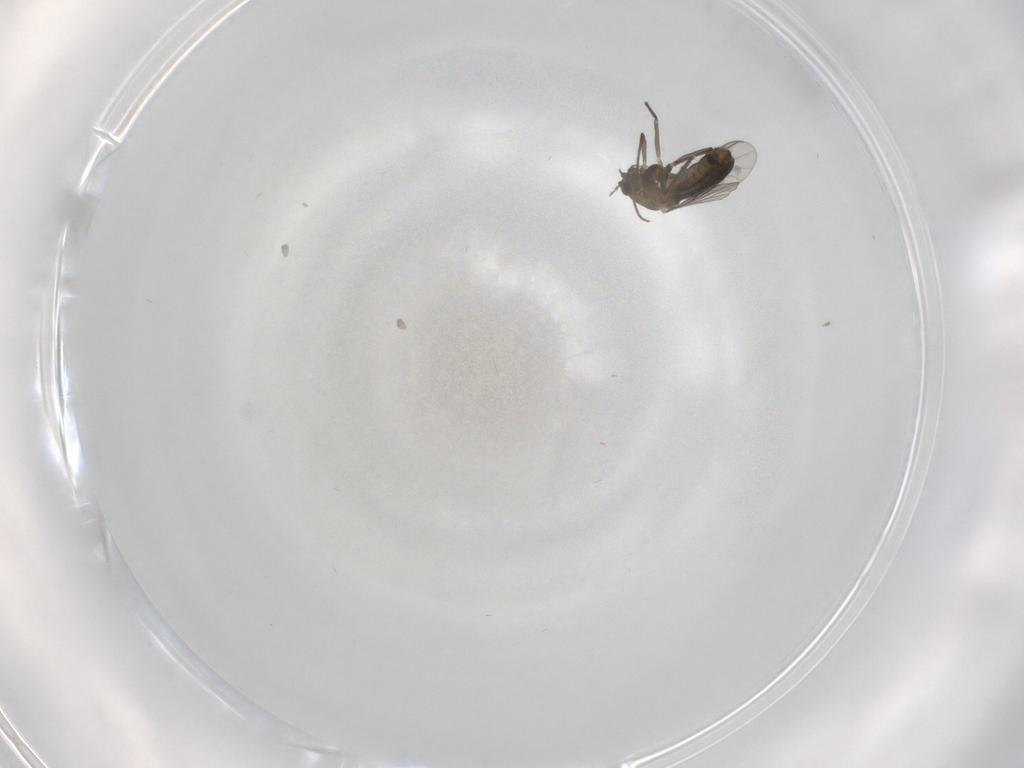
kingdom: Animalia
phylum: Arthropoda
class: Insecta
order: Diptera
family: Chironomidae
